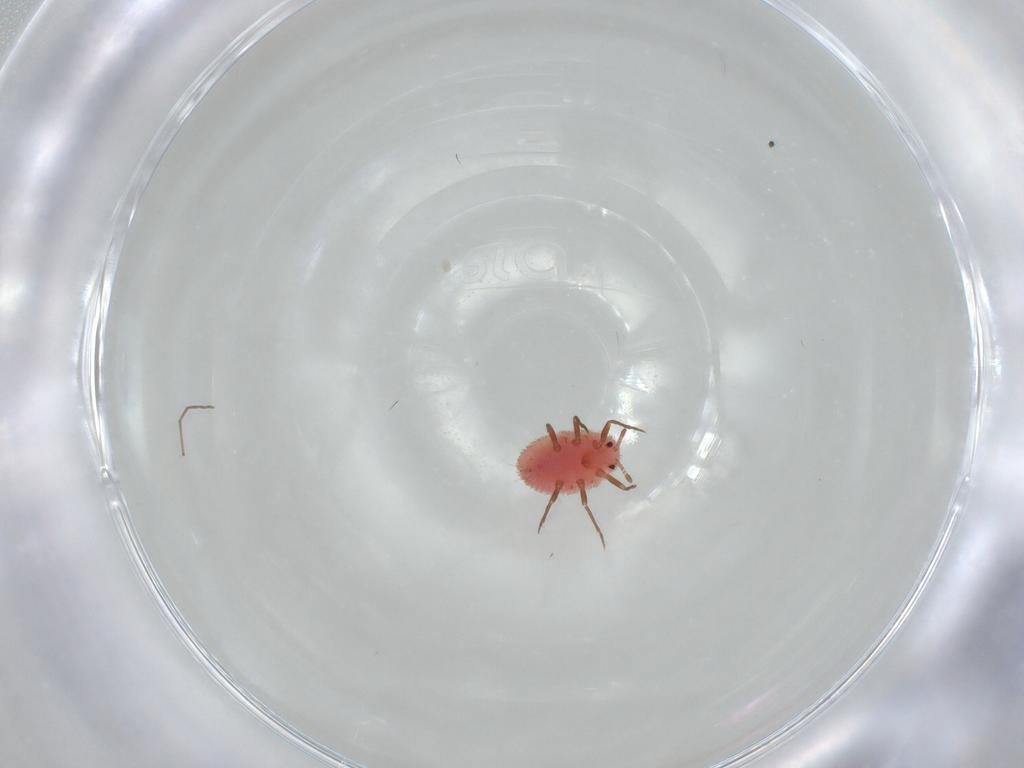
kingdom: Animalia
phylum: Arthropoda
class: Insecta
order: Diptera
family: Chironomidae
